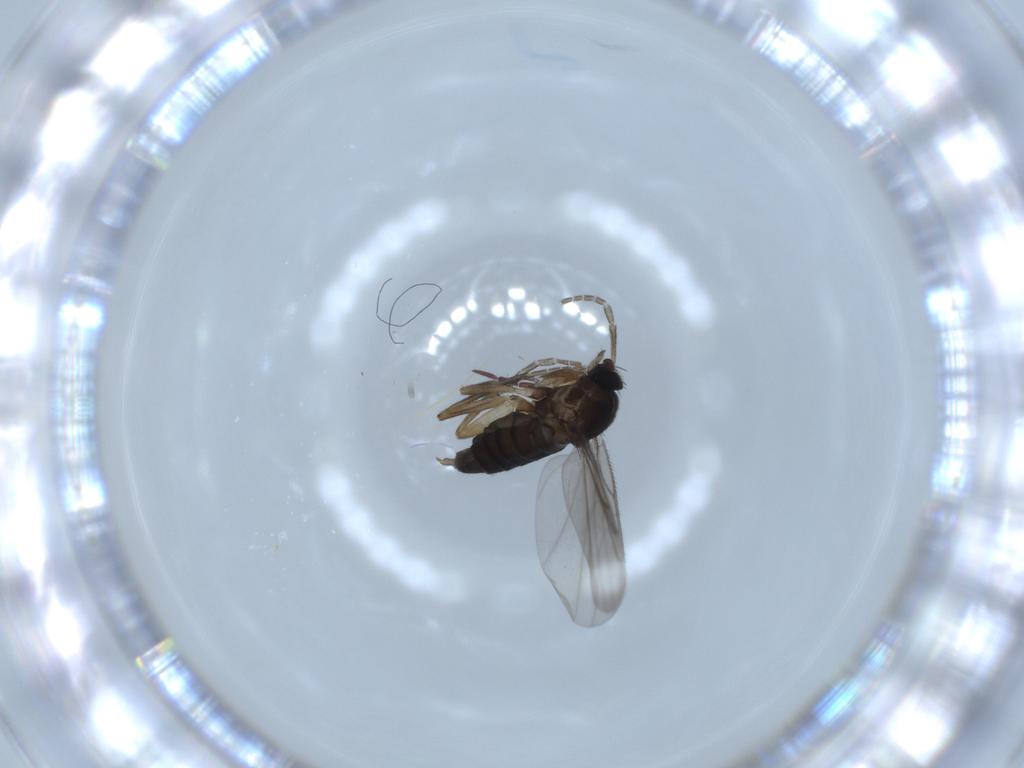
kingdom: Animalia
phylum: Arthropoda
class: Insecta
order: Diptera
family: Phoridae
